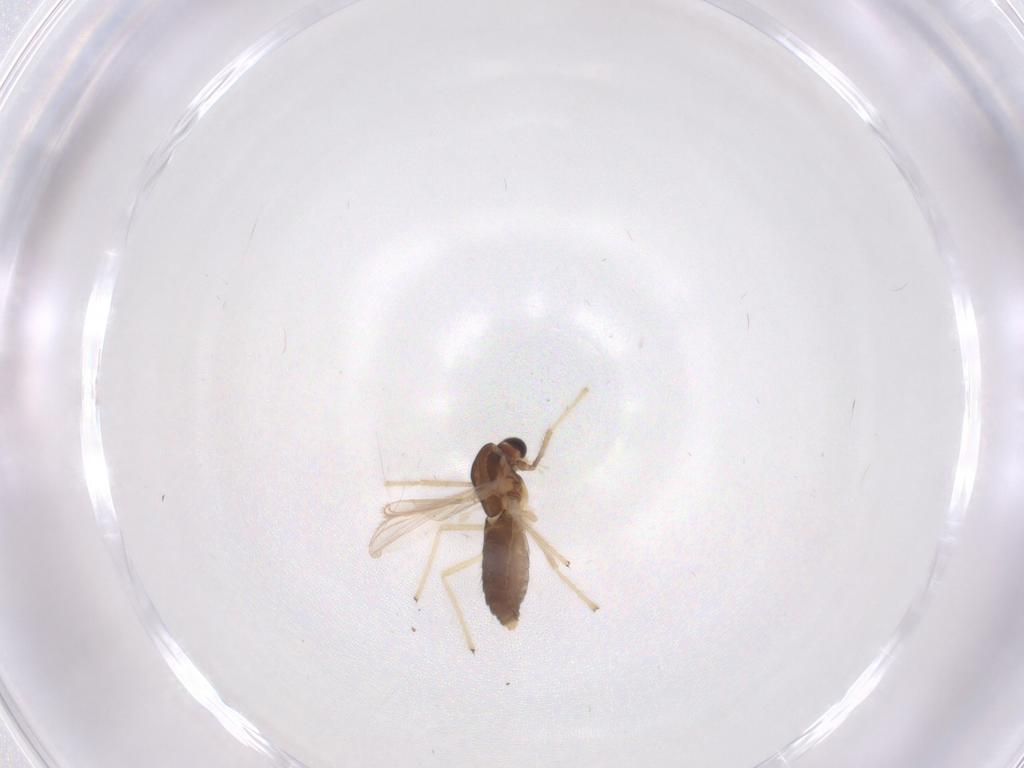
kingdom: Animalia
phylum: Arthropoda
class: Insecta
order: Diptera
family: Chironomidae
